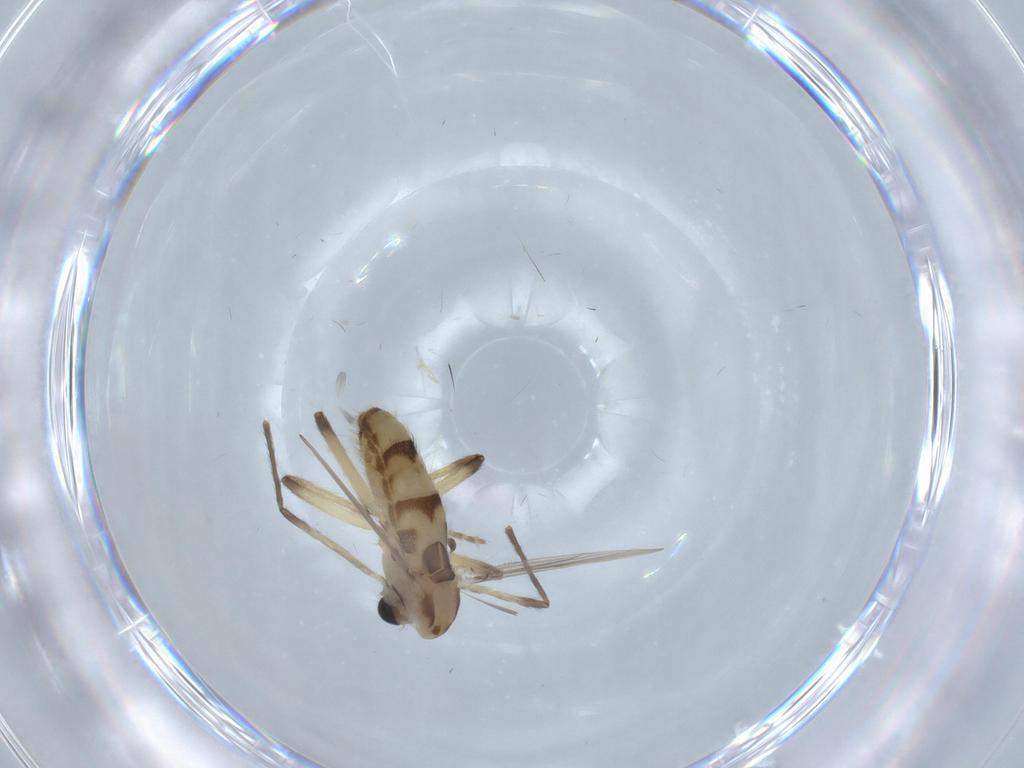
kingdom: Animalia
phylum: Arthropoda
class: Insecta
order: Diptera
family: Chironomidae
